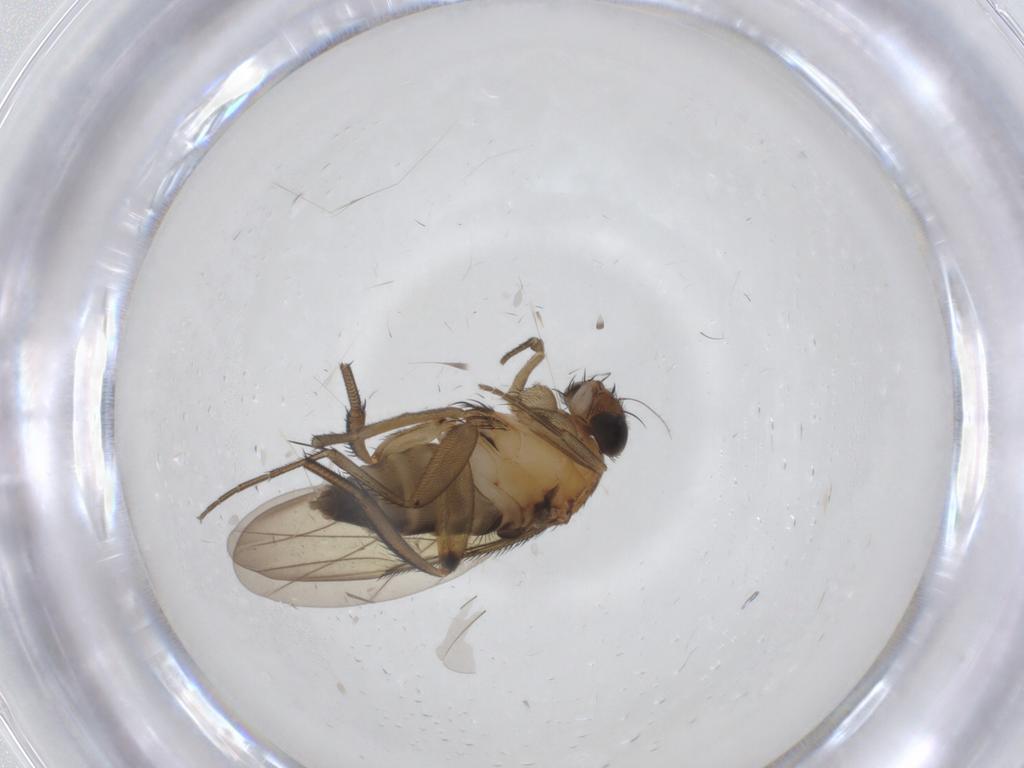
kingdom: Animalia
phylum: Arthropoda
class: Insecta
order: Diptera
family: Phoridae
